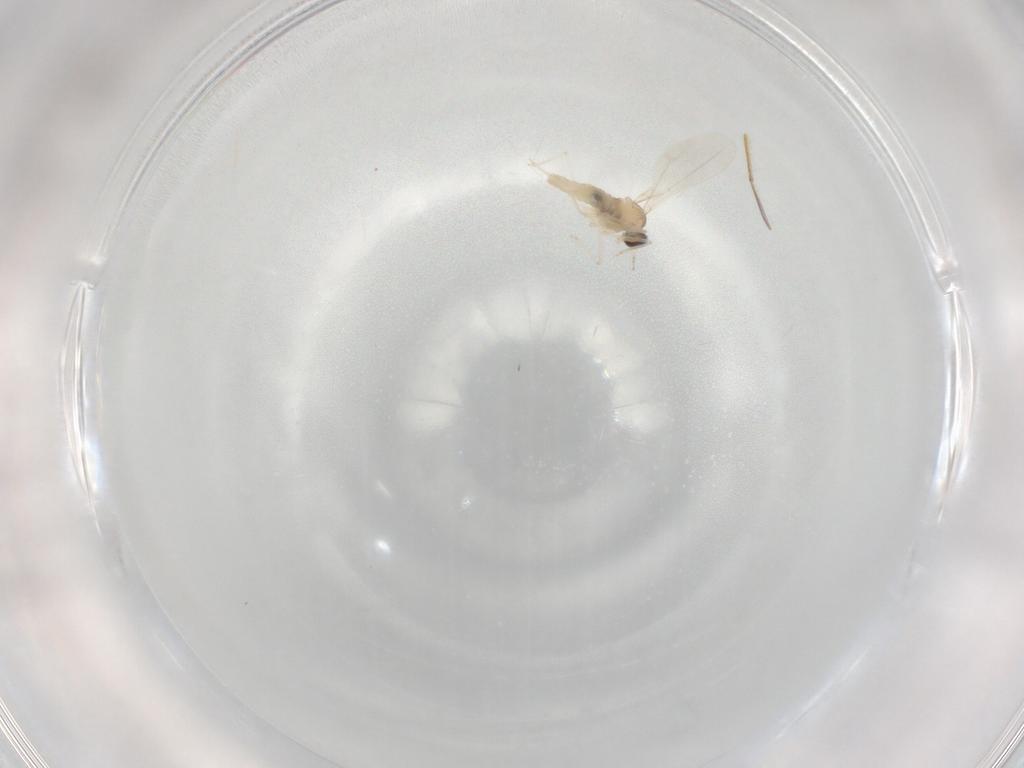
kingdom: Animalia
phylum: Arthropoda
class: Insecta
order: Diptera
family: Cecidomyiidae
